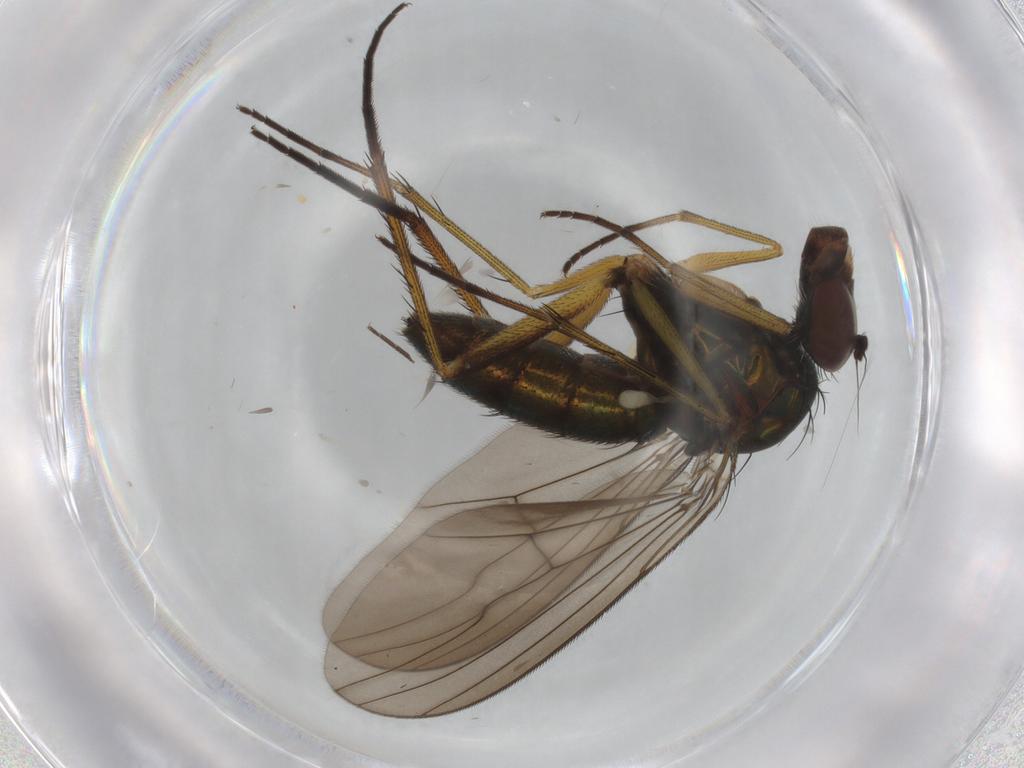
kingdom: Animalia
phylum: Arthropoda
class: Insecta
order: Diptera
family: Dolichopodidae
